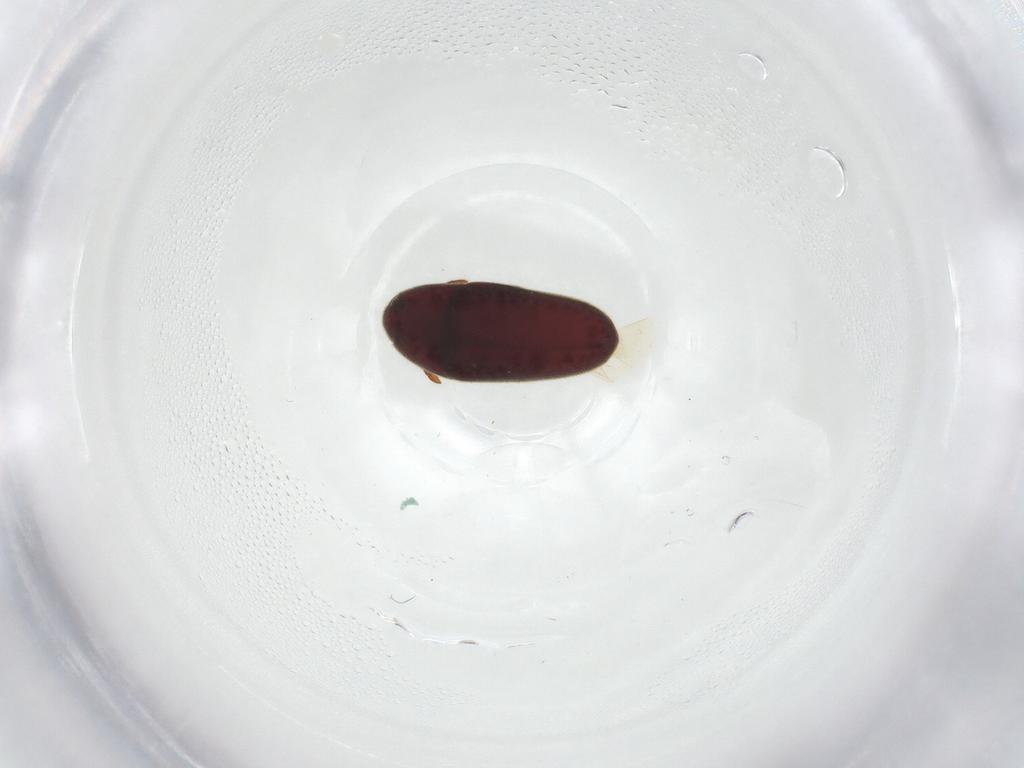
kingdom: Animalia
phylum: Arthropoda
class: Insecta
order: Coleoptera
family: Throscidae
